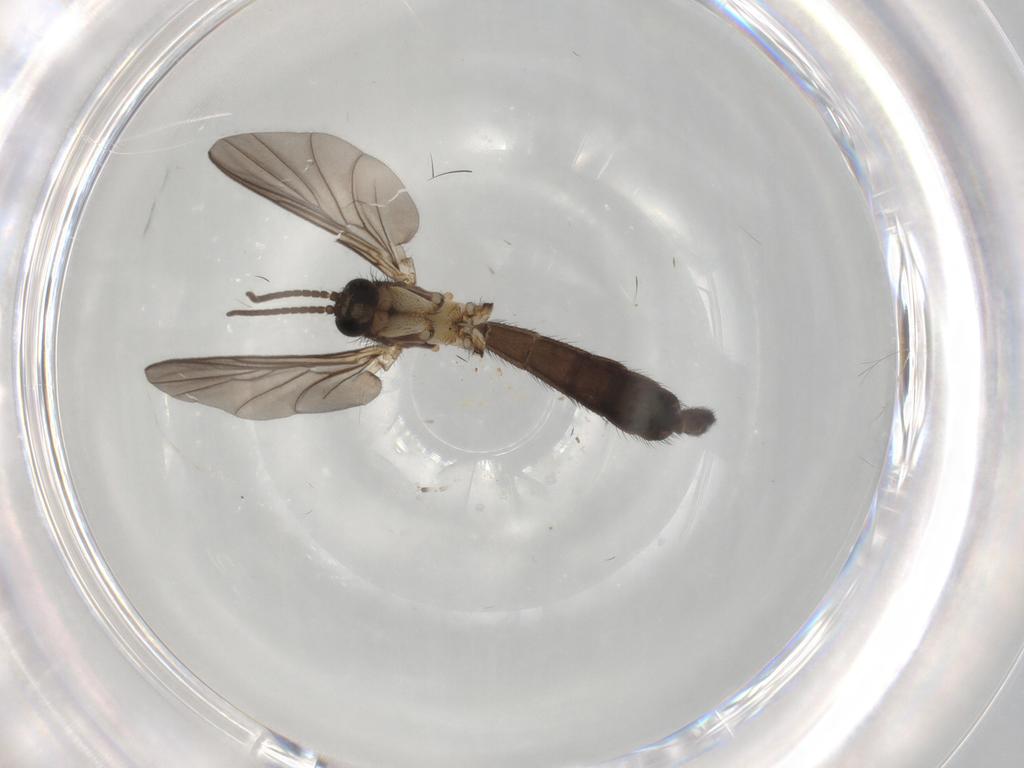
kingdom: Animalia
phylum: Arthropoda
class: Insecta
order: Diptera
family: Keroplatidae
